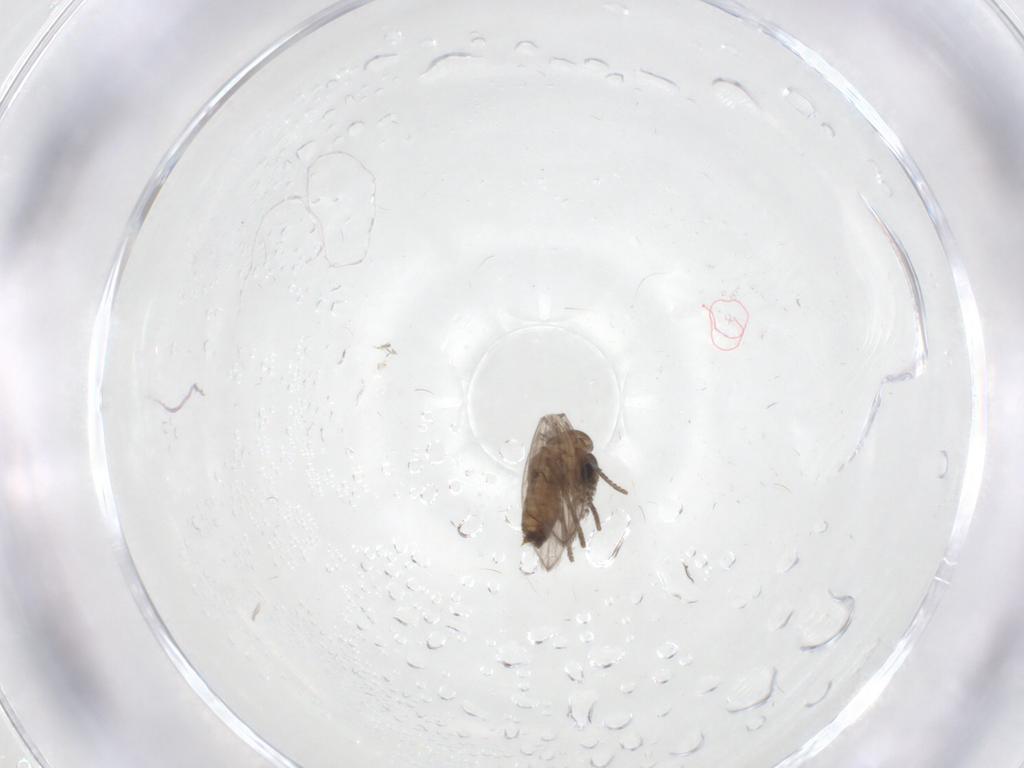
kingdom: Animalia
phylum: Arthropoda
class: Insecta
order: Diptera
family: Psychodidae
